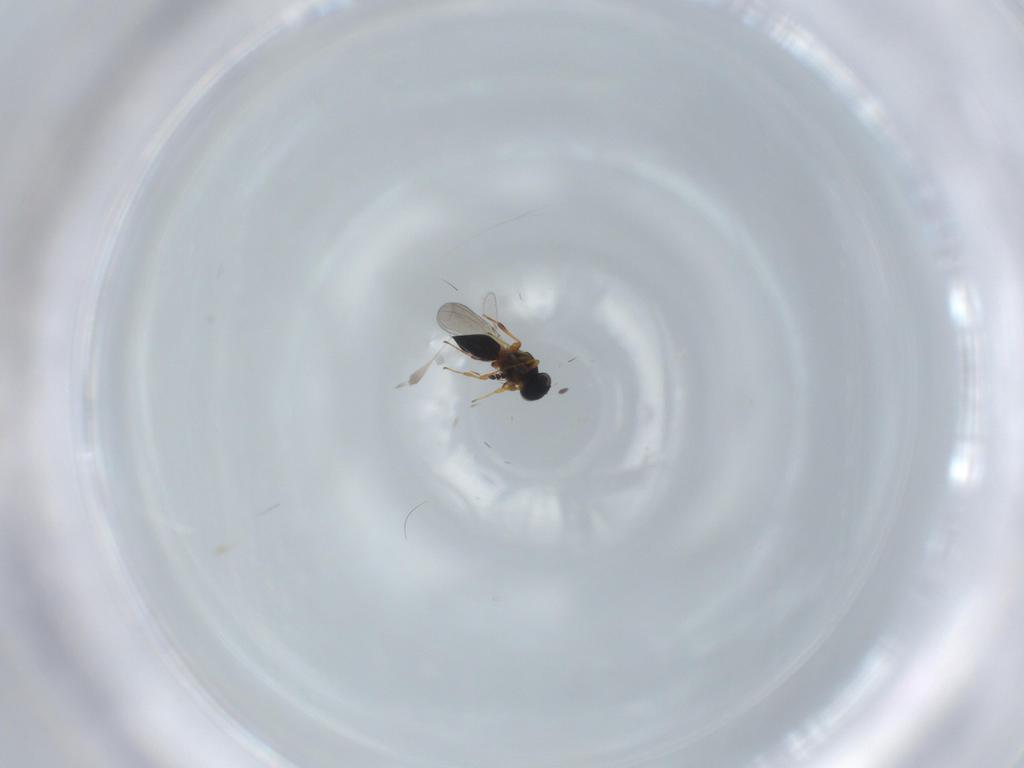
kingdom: Animalia
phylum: Arthropoda
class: Insecta
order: Hymenoptera
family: Platygastridae
